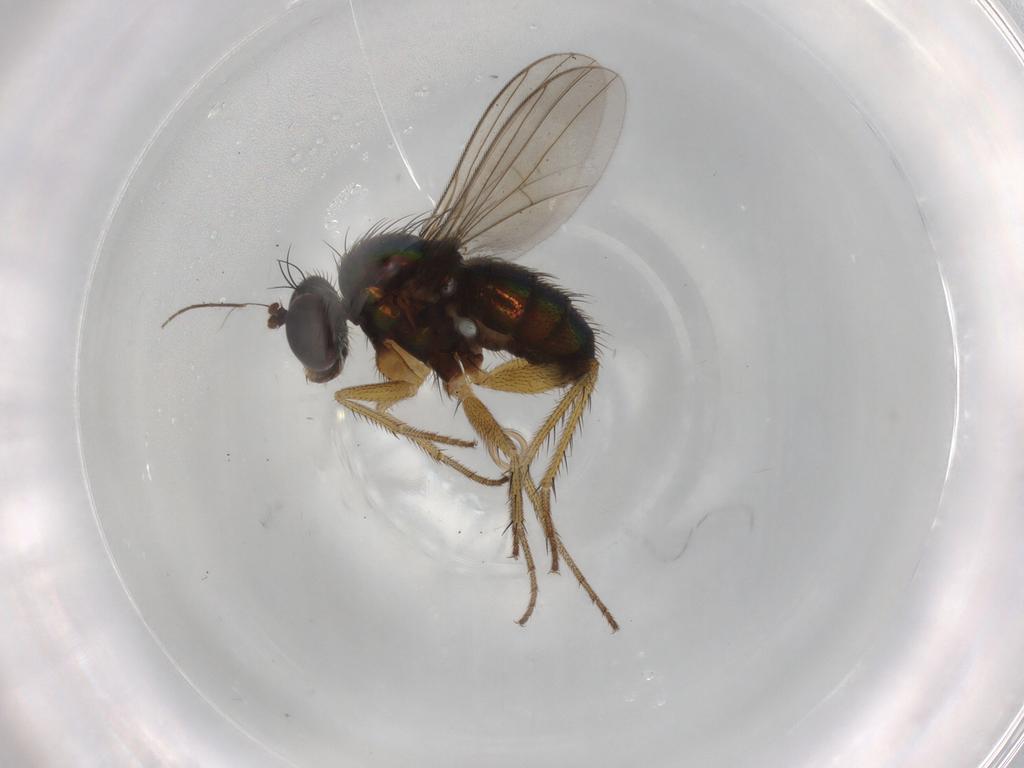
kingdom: Animalia
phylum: Arthropoda
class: Insecta
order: Diptera
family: Dolichopodidae
